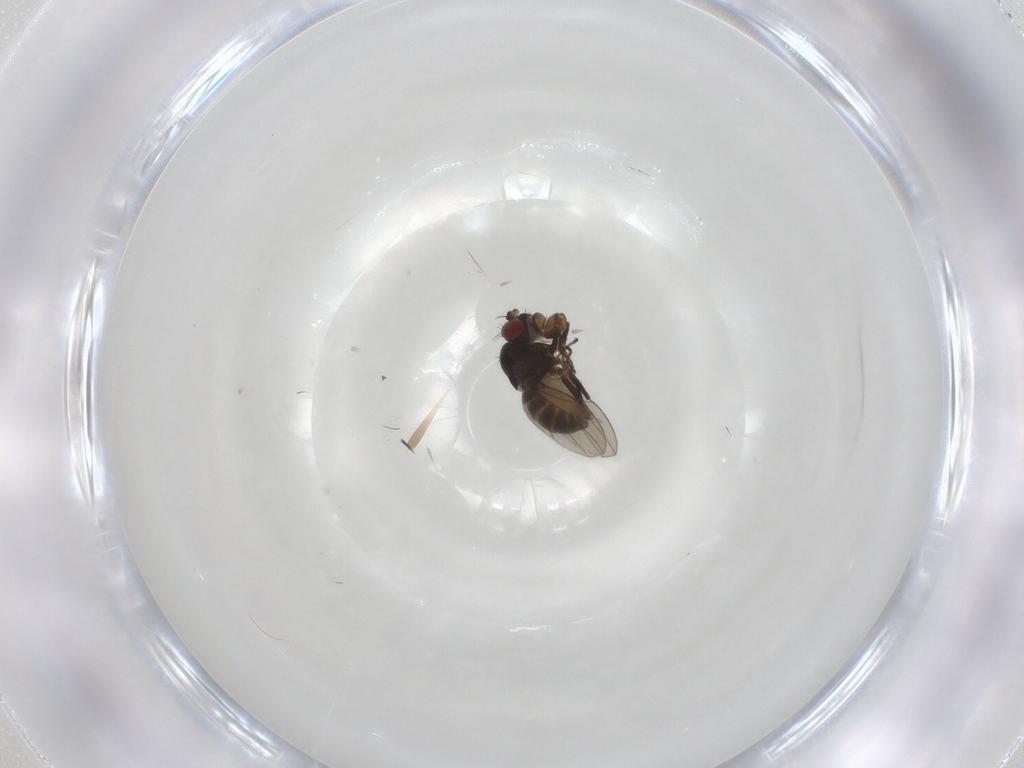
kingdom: Animalia
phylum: Arthropoda
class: Insecta
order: Diptera
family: Ephydridae
